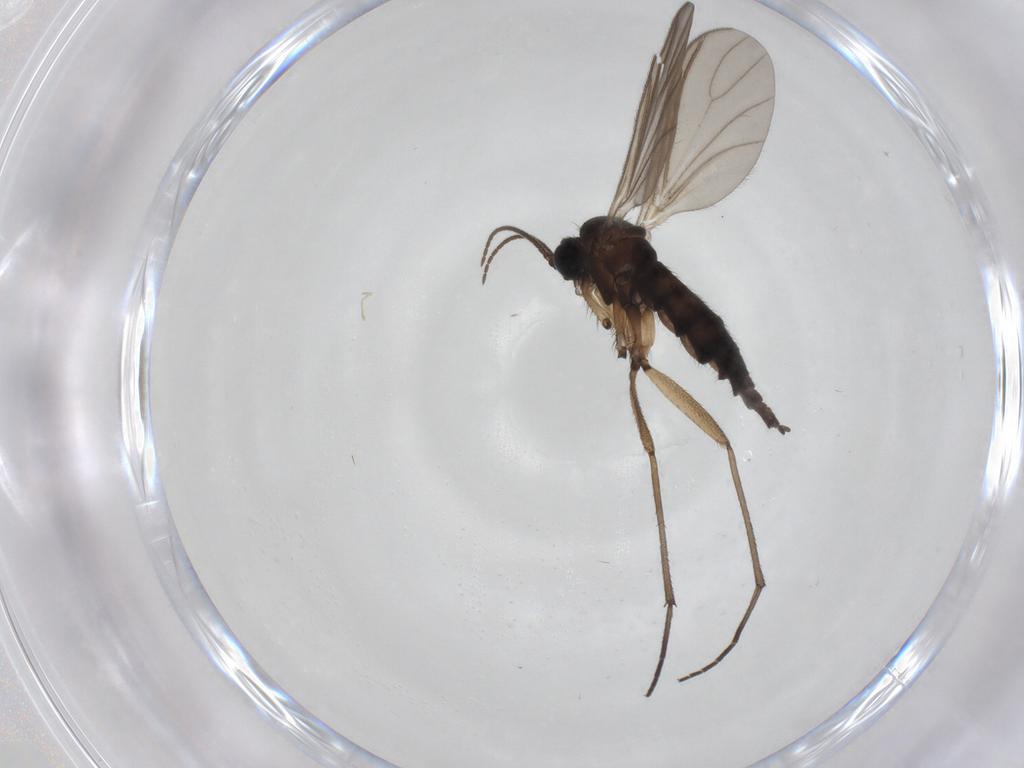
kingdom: Animalia
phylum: Arthropoda
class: Insecta
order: Diptera
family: Sciaridae
